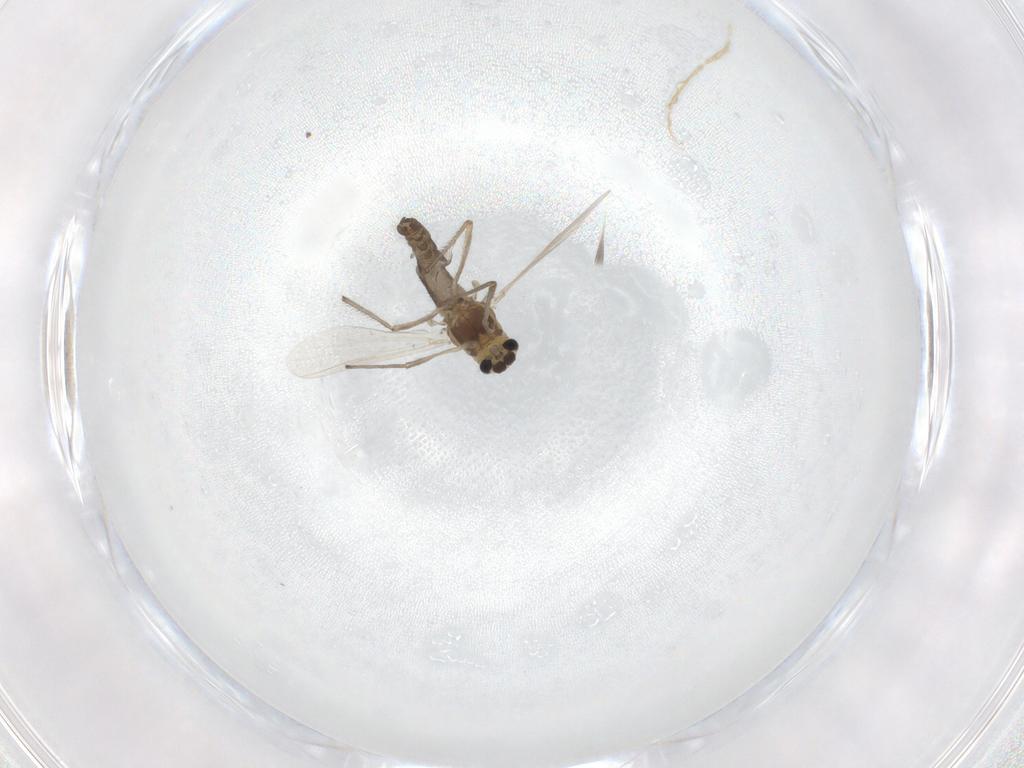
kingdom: Animalia
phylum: Arthropoda
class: Insecta
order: Diptera
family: Chironomidae
